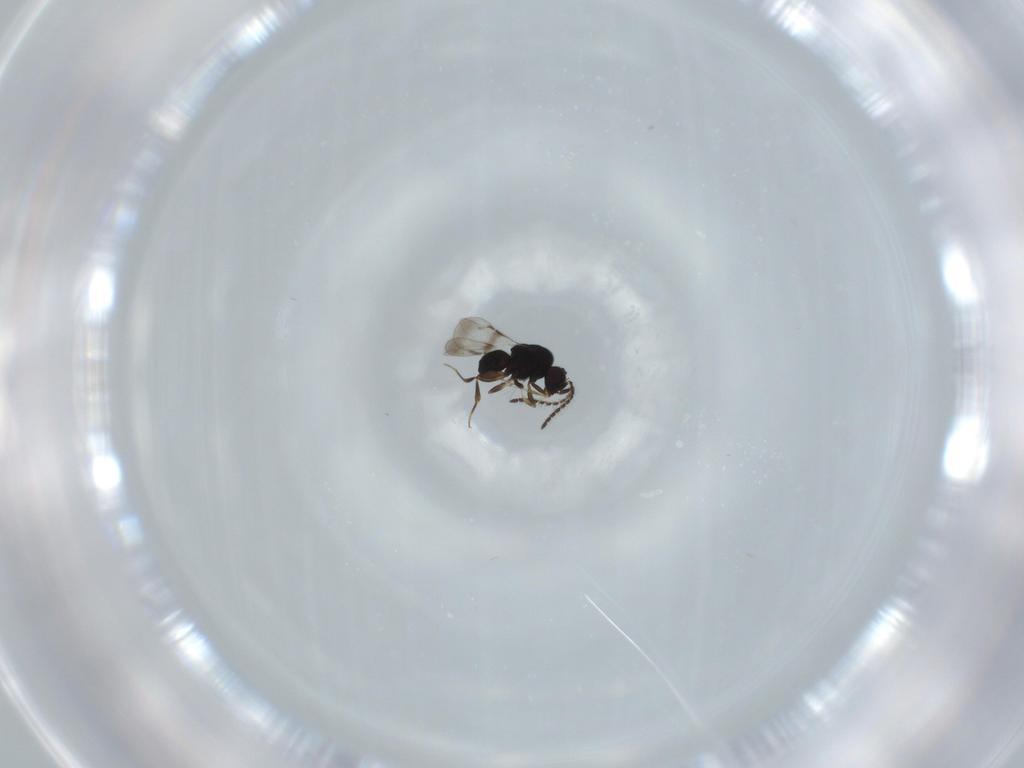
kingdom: Animalia
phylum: Arthropoda
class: Insecta
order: Hymenoptera
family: Ceraphronidae
